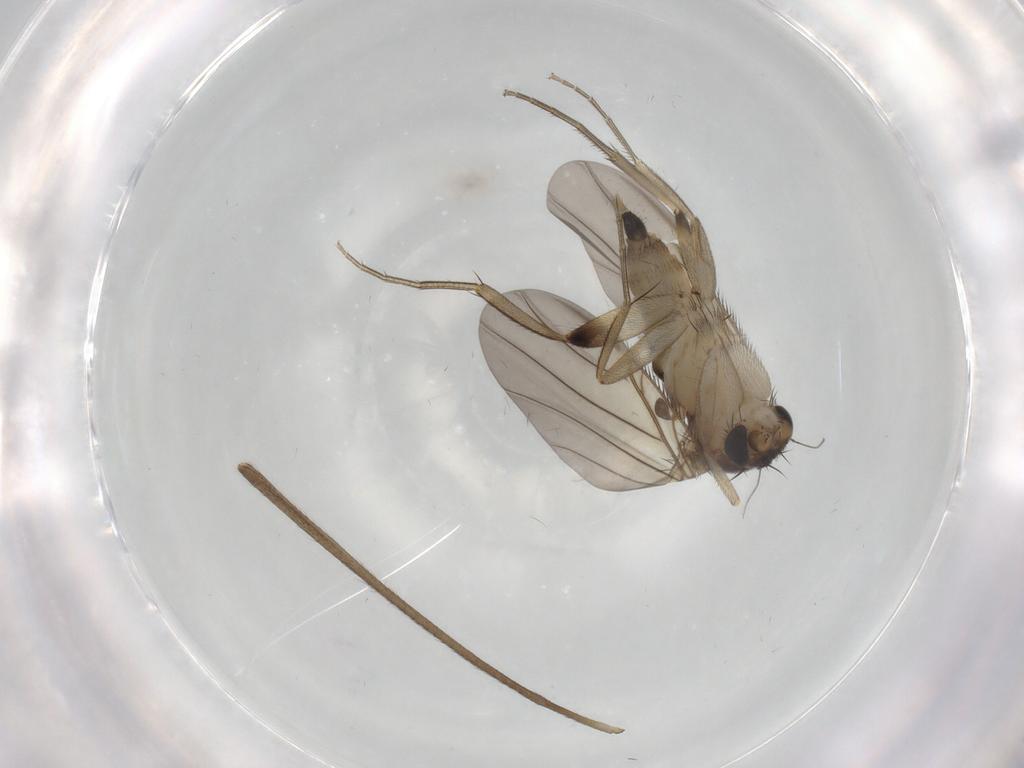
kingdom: Animalia
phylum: Arthropoda
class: Insecta
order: Diptera
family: Phoridae
